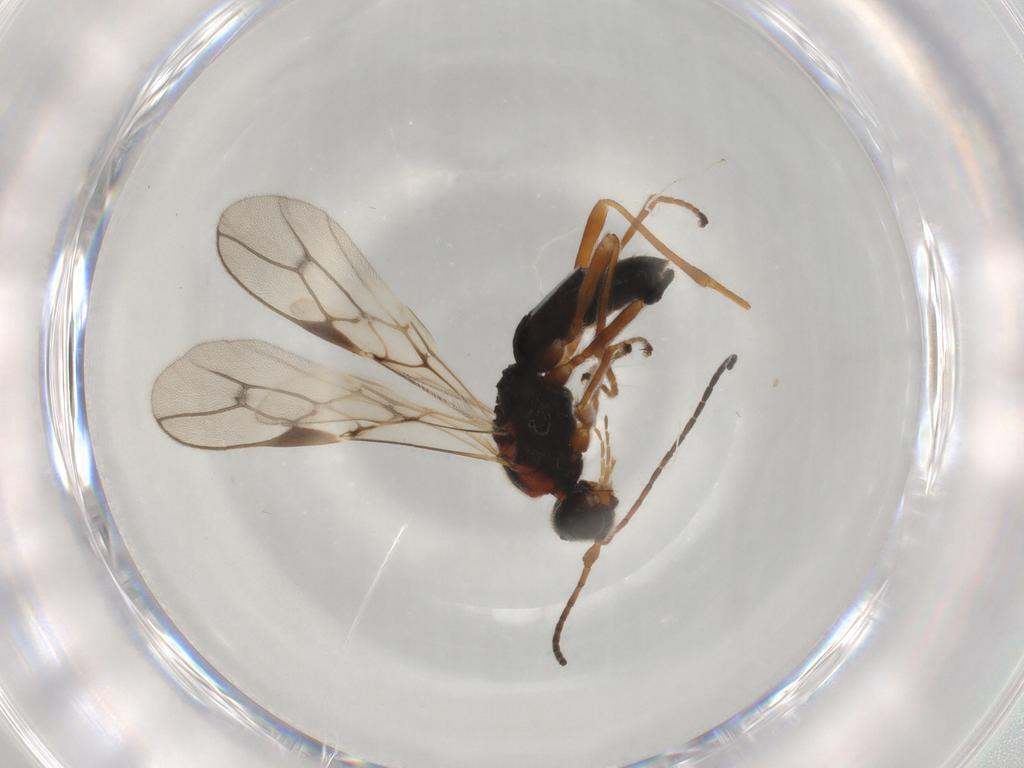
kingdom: Animalia
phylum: Arthropoda
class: Insecta
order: Hymenoptera
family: Braconidae
